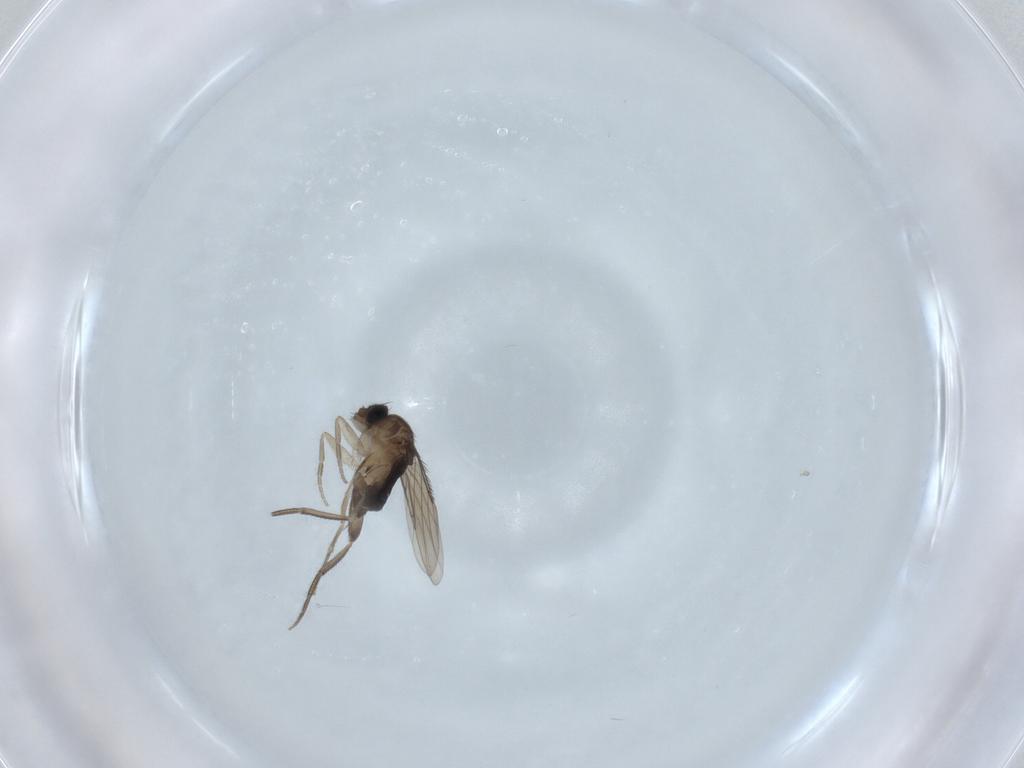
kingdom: Animalia
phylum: Arthropoda
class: Insecta
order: Diptera
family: Phoridae
